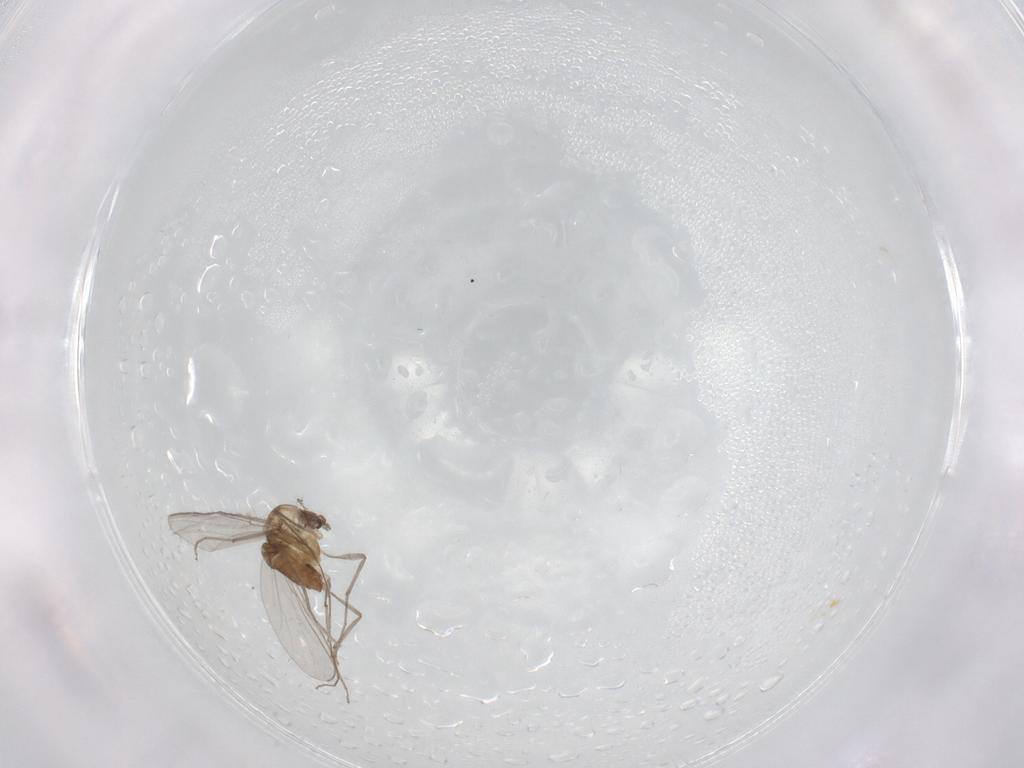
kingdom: Animalia
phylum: Arthropoda
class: Insecta
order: Diptera
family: Chironomidae
